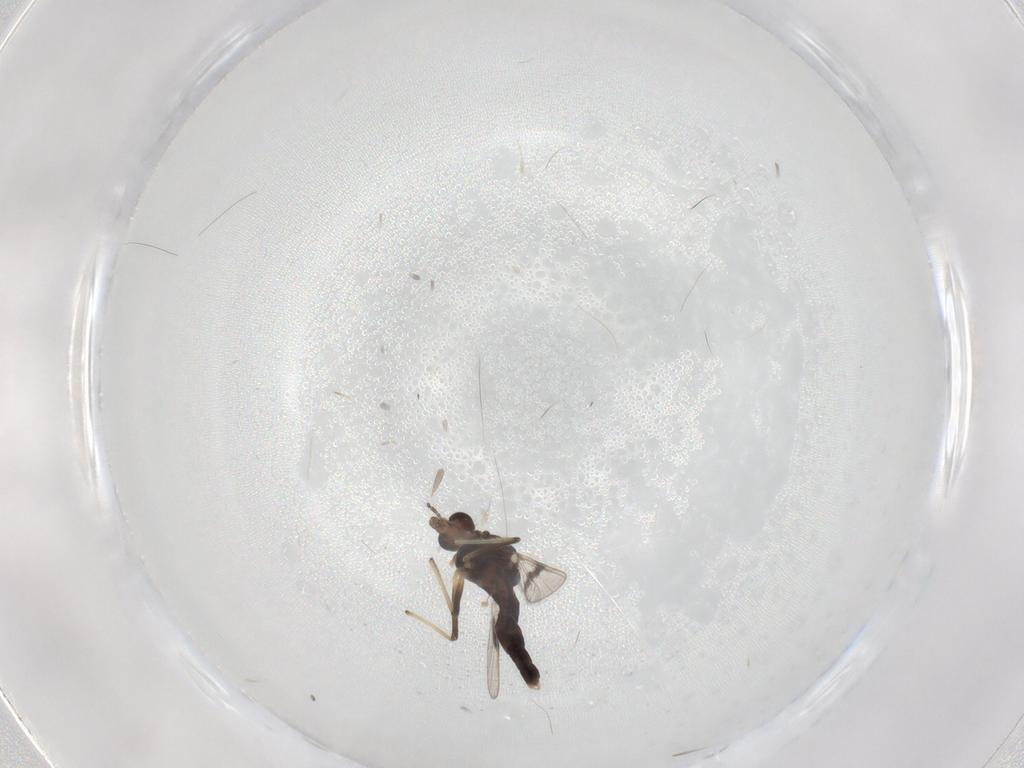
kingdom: Animalia
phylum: Arthropoda
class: Insecta
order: Diptera
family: Chironomidae
